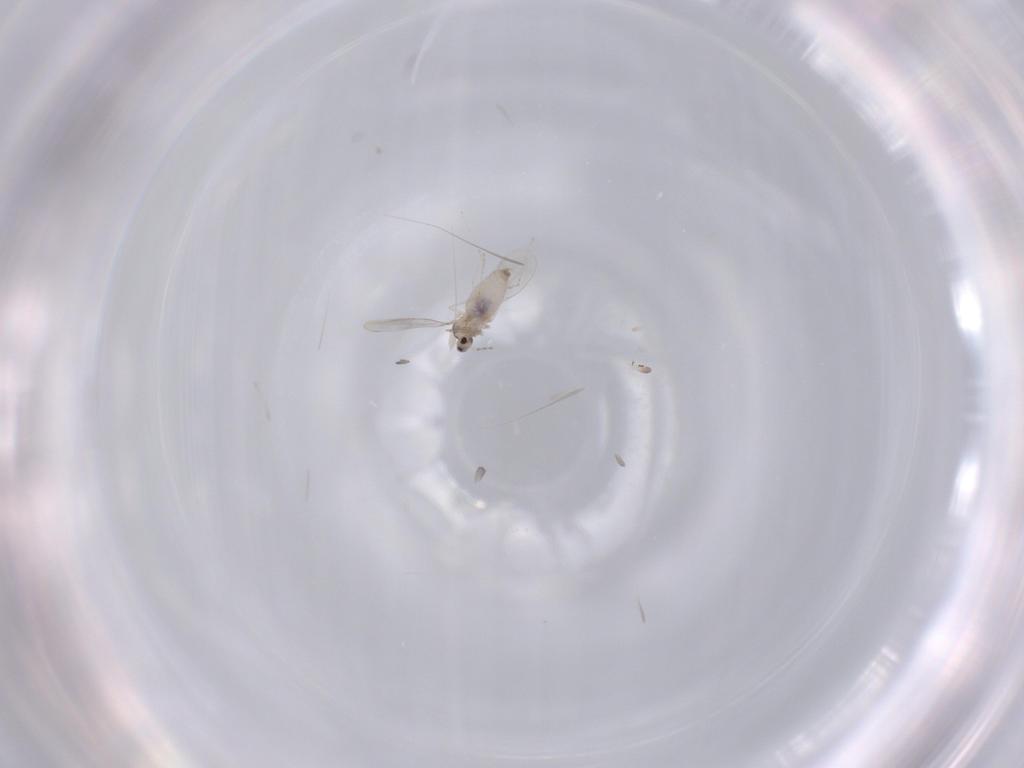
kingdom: Animalia
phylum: Arthropoda
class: Insecta
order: Diptera
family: Cecidomyiidae
